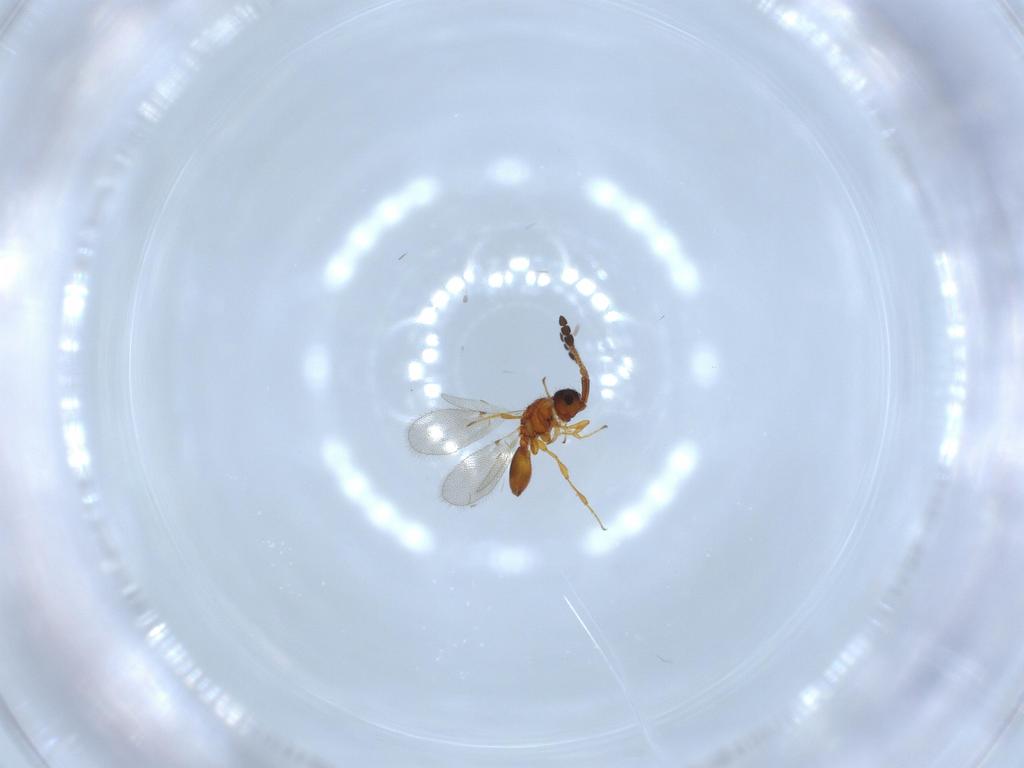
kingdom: Animalia
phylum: Arthropoda
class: Insecta
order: Hymenoptera
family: Diapriidae
